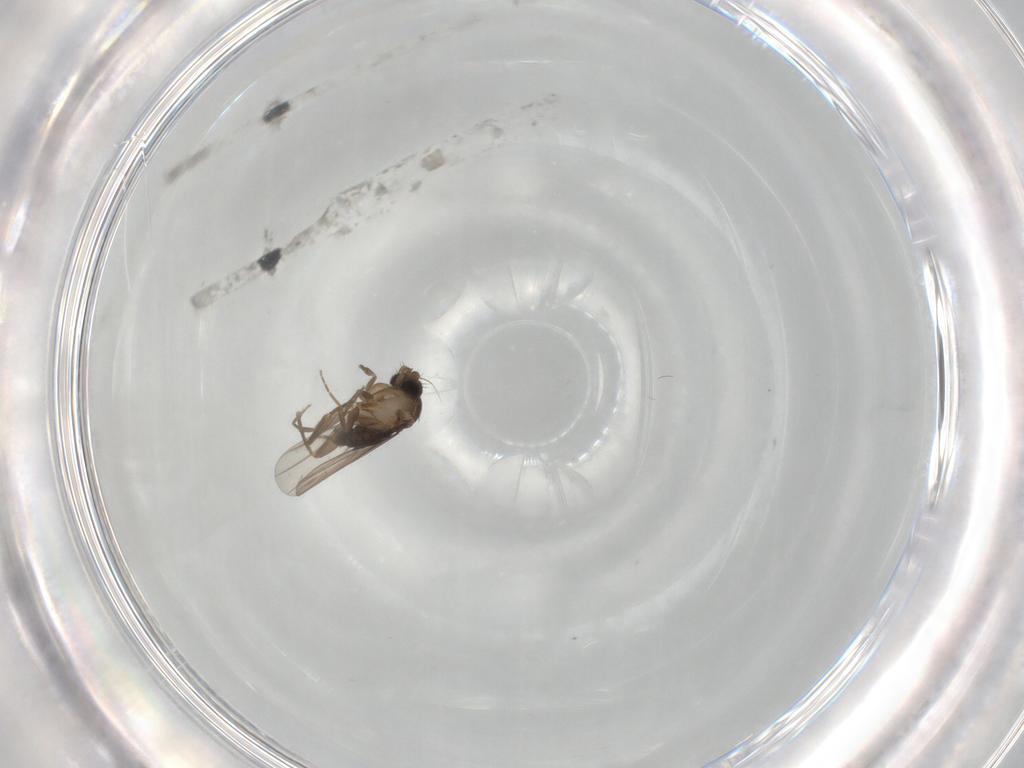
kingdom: Animalia
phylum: Arthropoda
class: Insecta
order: Diptera
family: Phoridae
